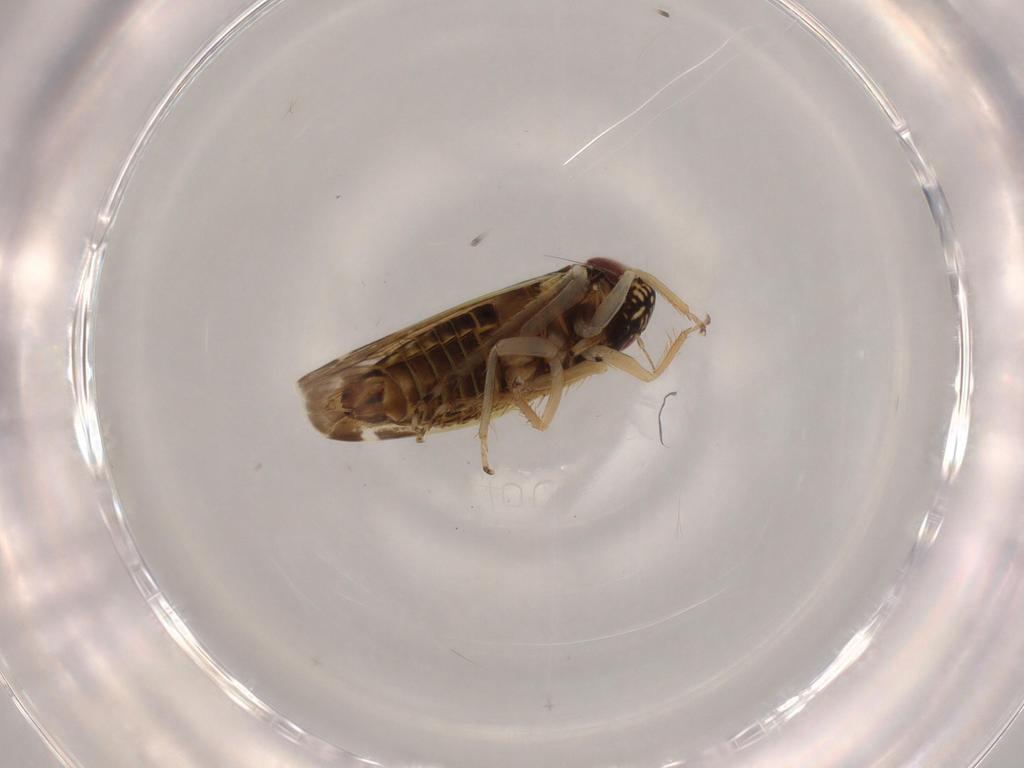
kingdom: Animalia
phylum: Arthropoda
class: Insecta
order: Hemiptera
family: Cicadellidae
